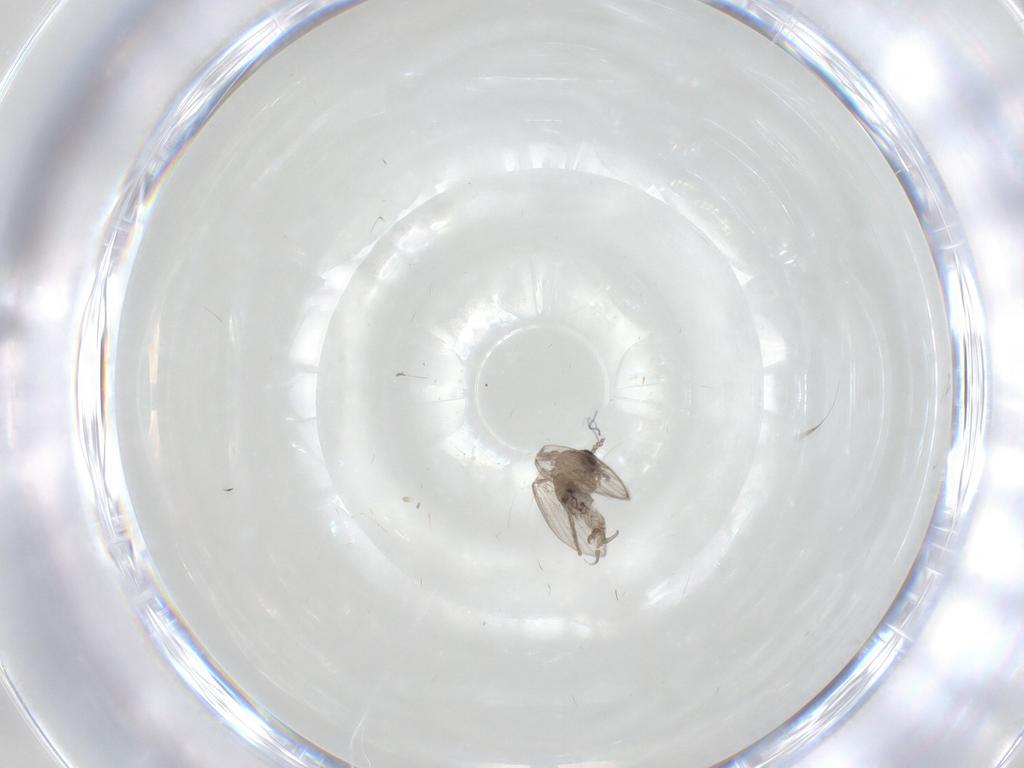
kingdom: Animalia
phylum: Arthropoda
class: Insecta
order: Diptera
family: Psychodidae
